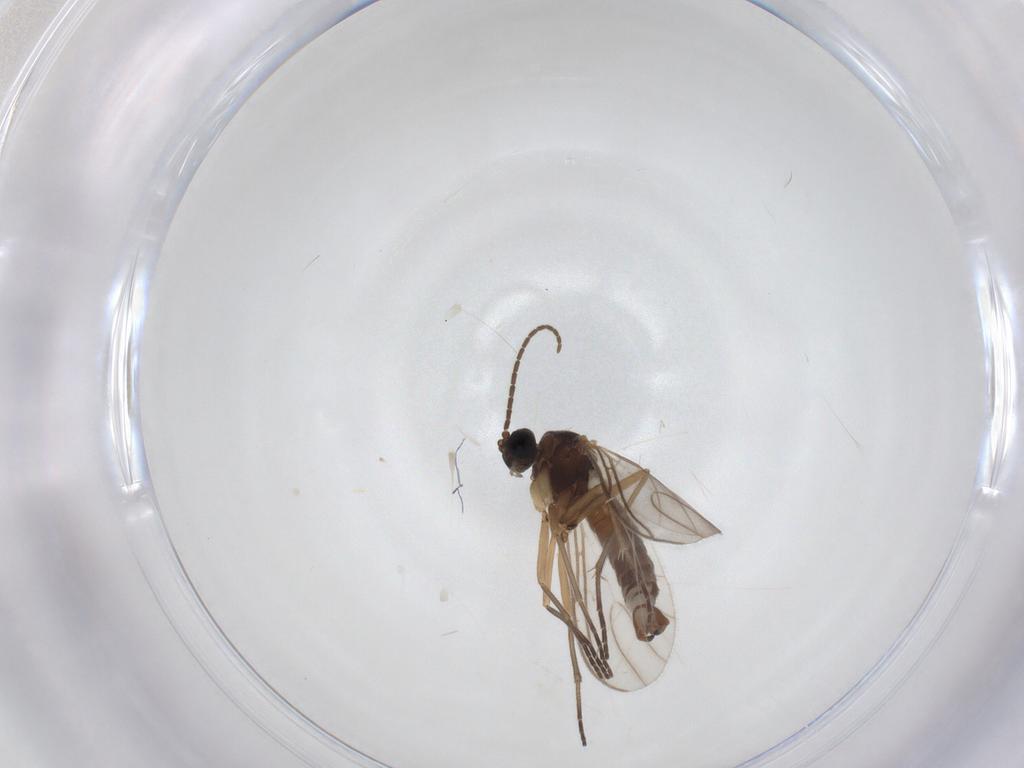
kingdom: Animalia
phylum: Arthropoda
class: Insecta
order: Diptera
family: Sciaridae
